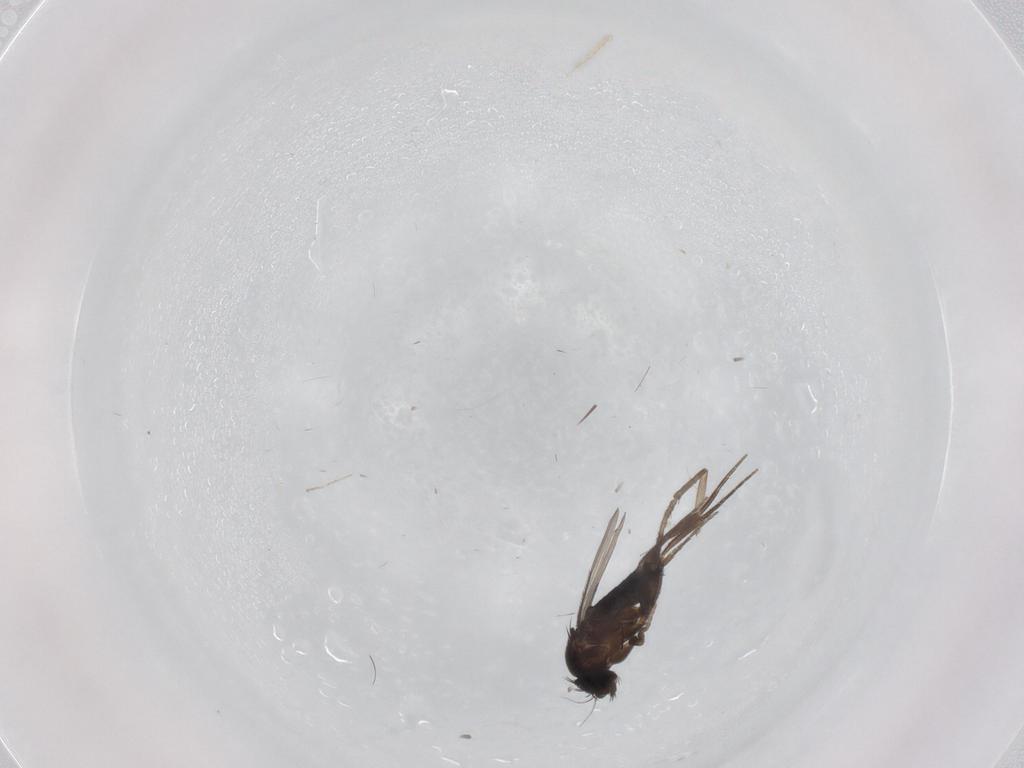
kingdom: Animalia
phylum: Arthropoda
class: Insecta
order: Diptera
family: Phoridae
